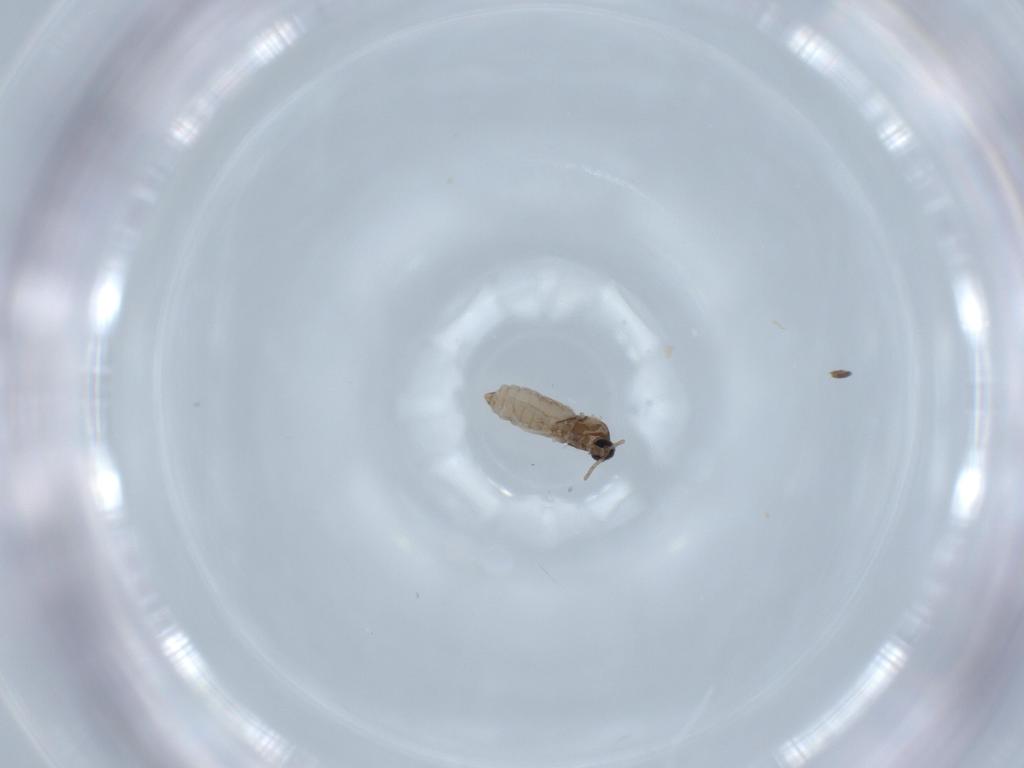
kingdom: Animalia
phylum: Arthropoda
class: Insecta
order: Diptera
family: Cecidomyiidae
